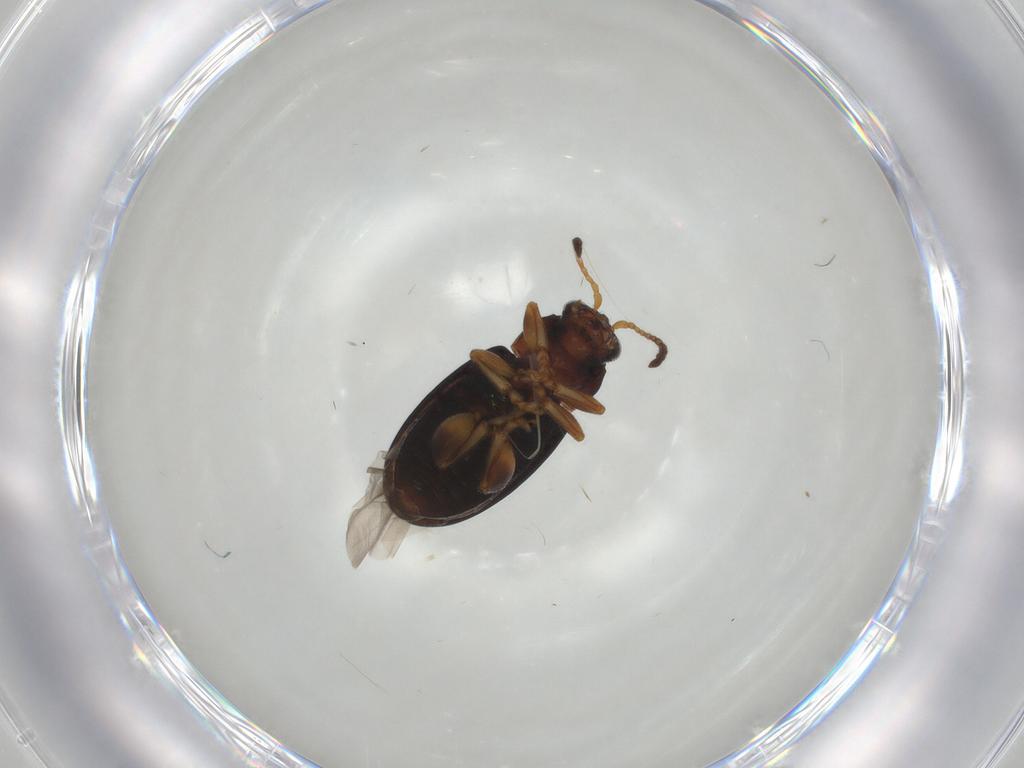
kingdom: Animalia
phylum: Arthropoda
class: Insecta
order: Coleoptera
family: Chrysomelidae
